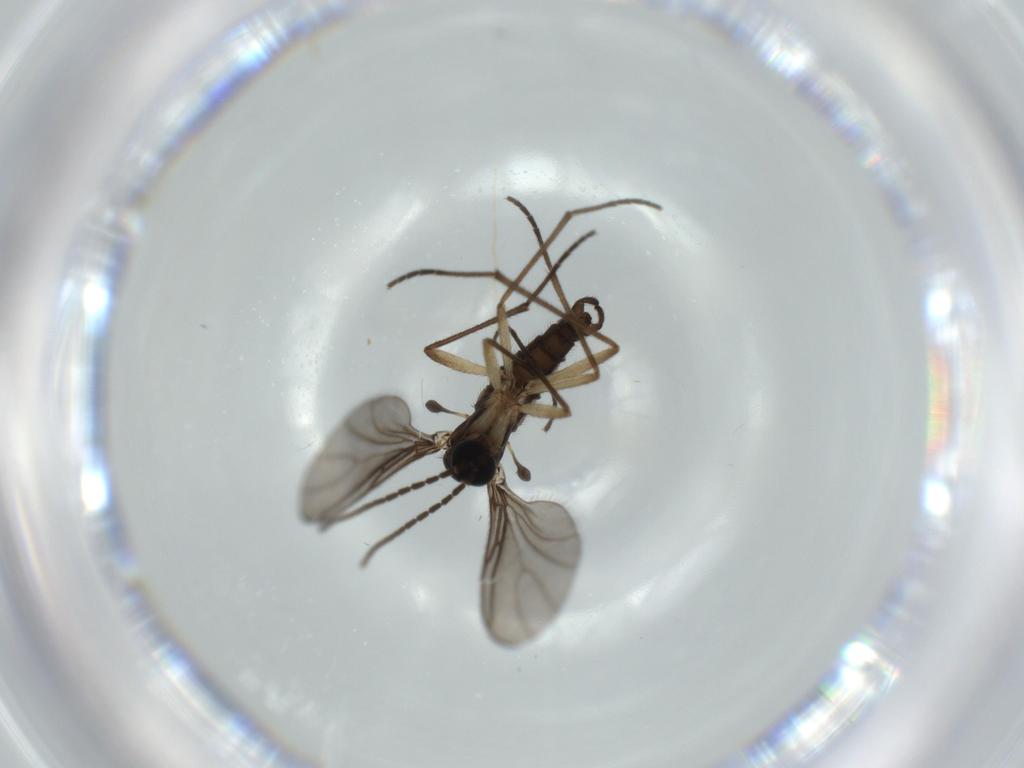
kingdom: Animalia
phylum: Arthropoda
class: Insecta
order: Diptera
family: Sciaridae
